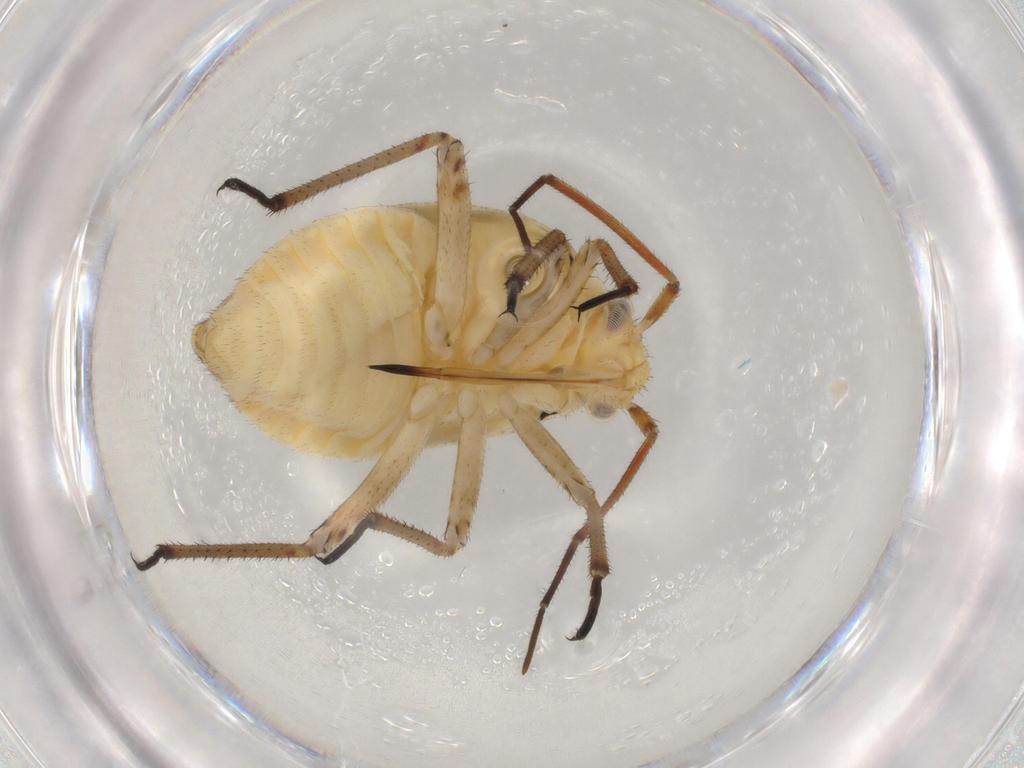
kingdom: Animalia
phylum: Arthropoda
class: Insecta
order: Hemiptera
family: Miridae
